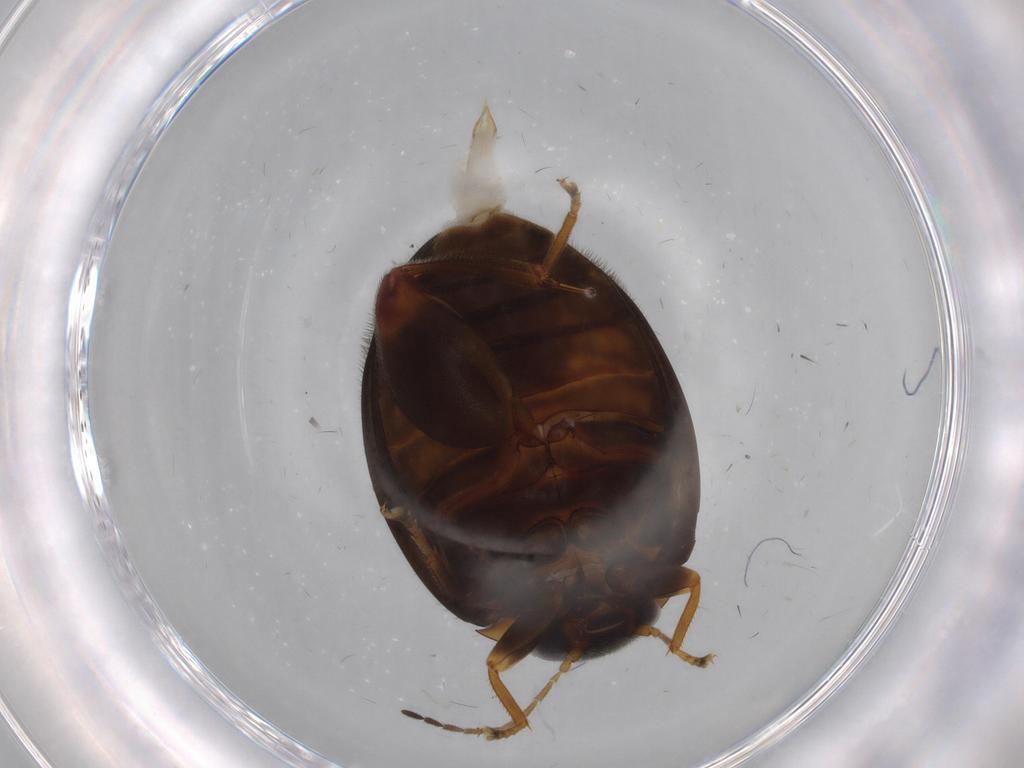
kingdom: Animalia
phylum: Arthropoda
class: Insecta
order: Coleoptera
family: Scirtidae
